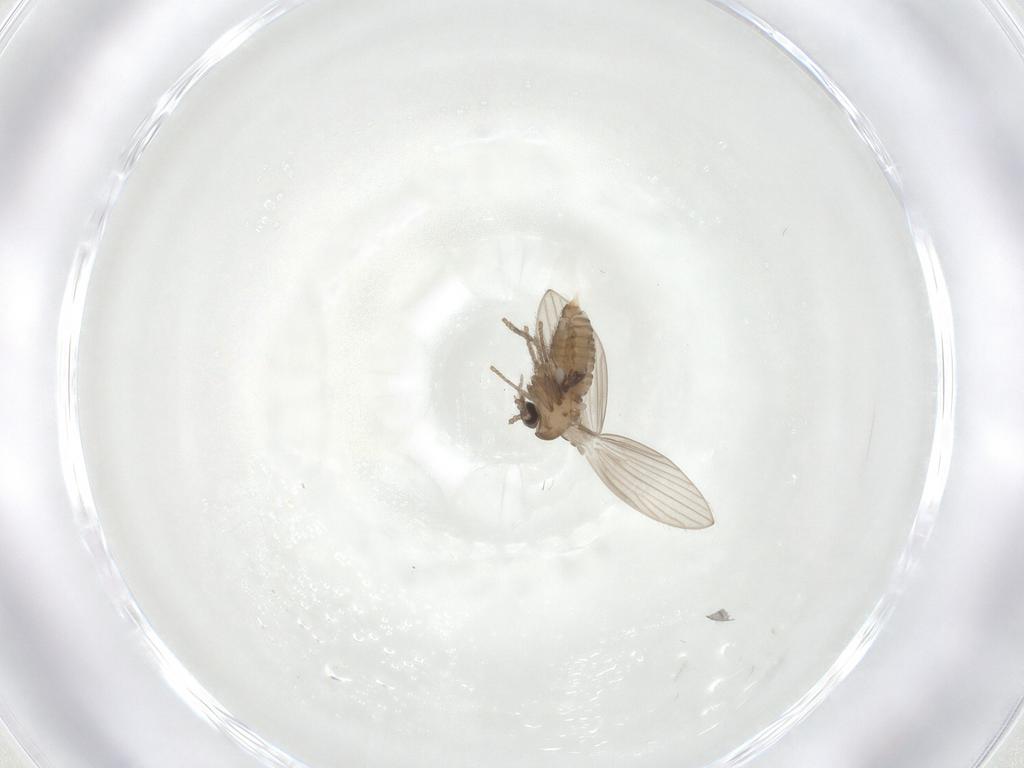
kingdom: Animalia
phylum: Arthropoda
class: Insecta
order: Diptera
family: Psychodidae
